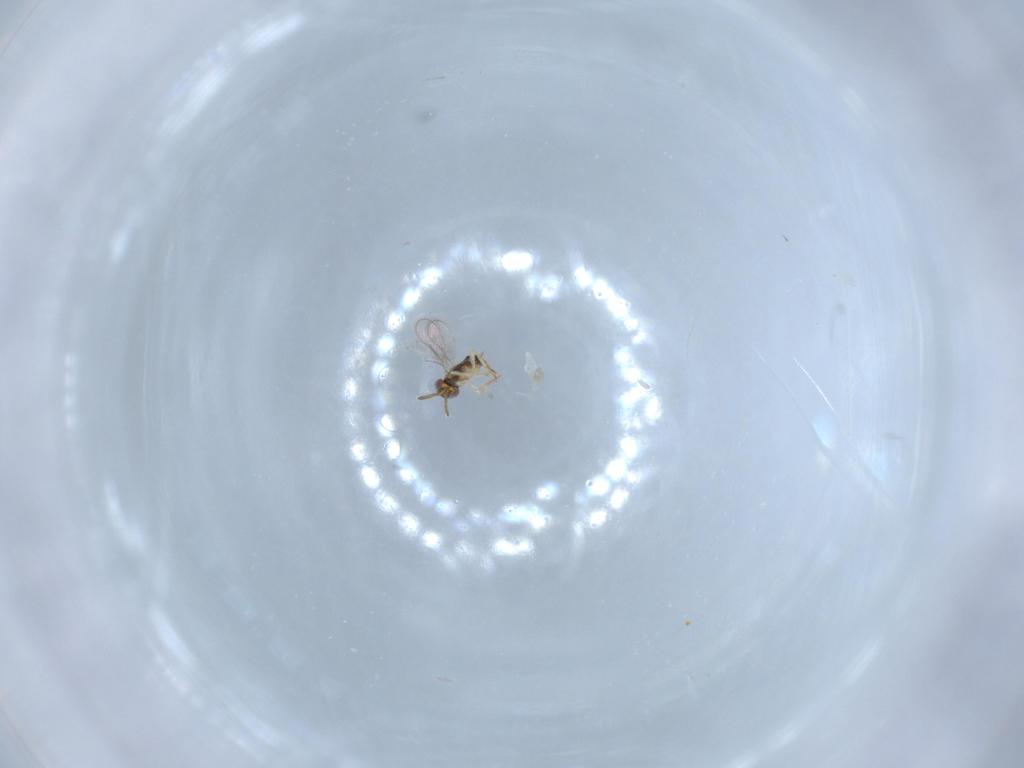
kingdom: Animalia
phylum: Arthropoda
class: Insecta
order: Hymenoptera
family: Aphelinidae
